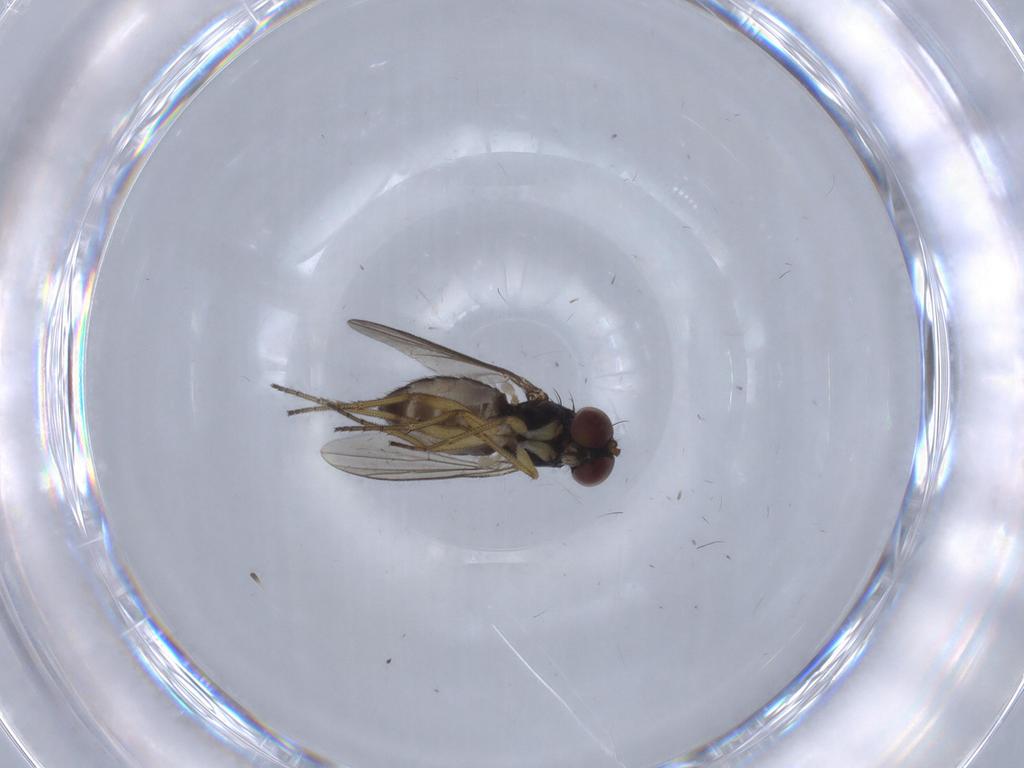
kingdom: Animalia
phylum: Arthropoda
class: Insecta
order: Diptera
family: Dolichopodidae
